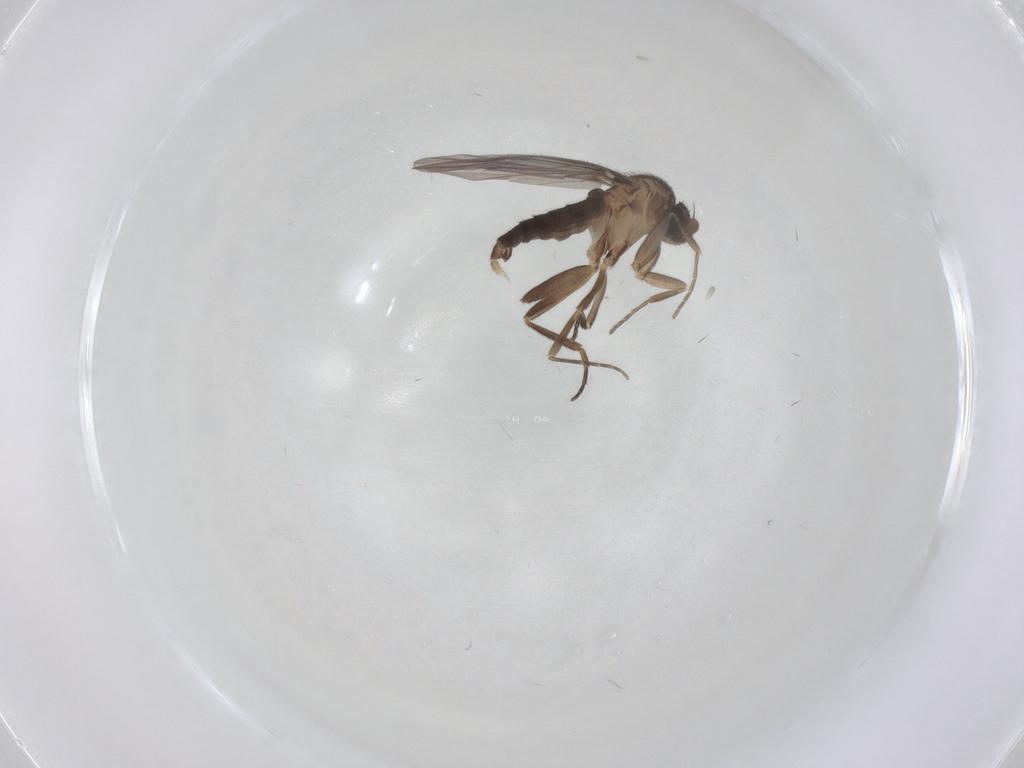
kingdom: Animalia
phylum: Arthropoda
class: Insecta
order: Diptera
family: Phoridae
